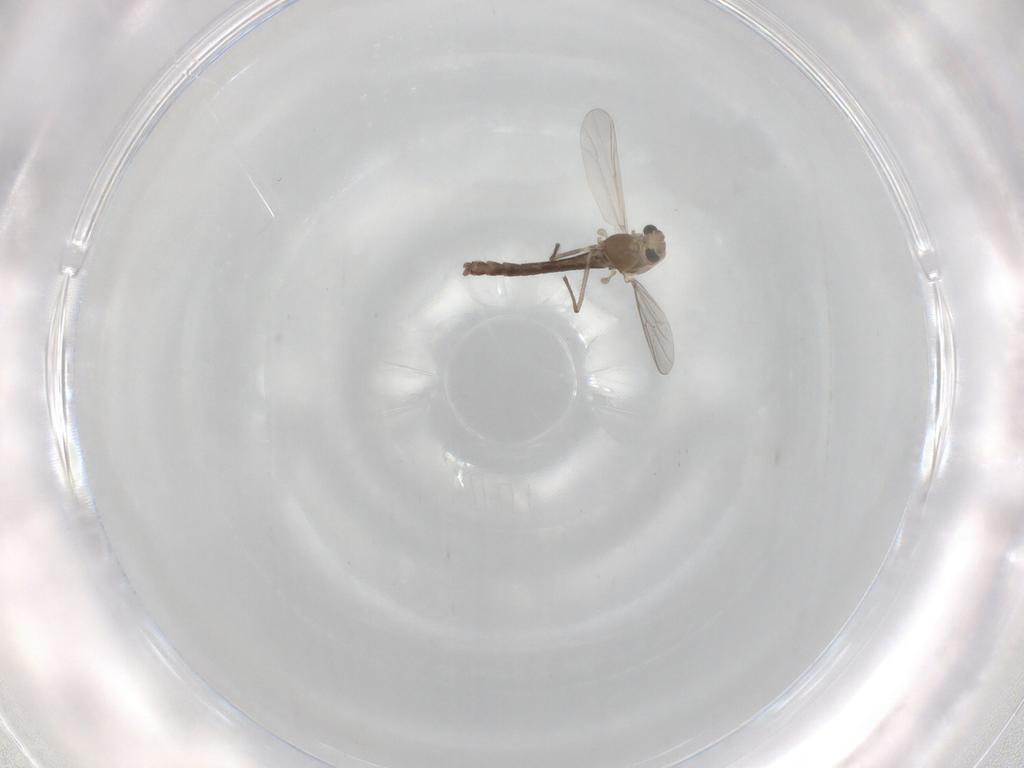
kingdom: Animalia
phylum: Arthropoda
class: Insecta
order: Diptera
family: Chironomidae
